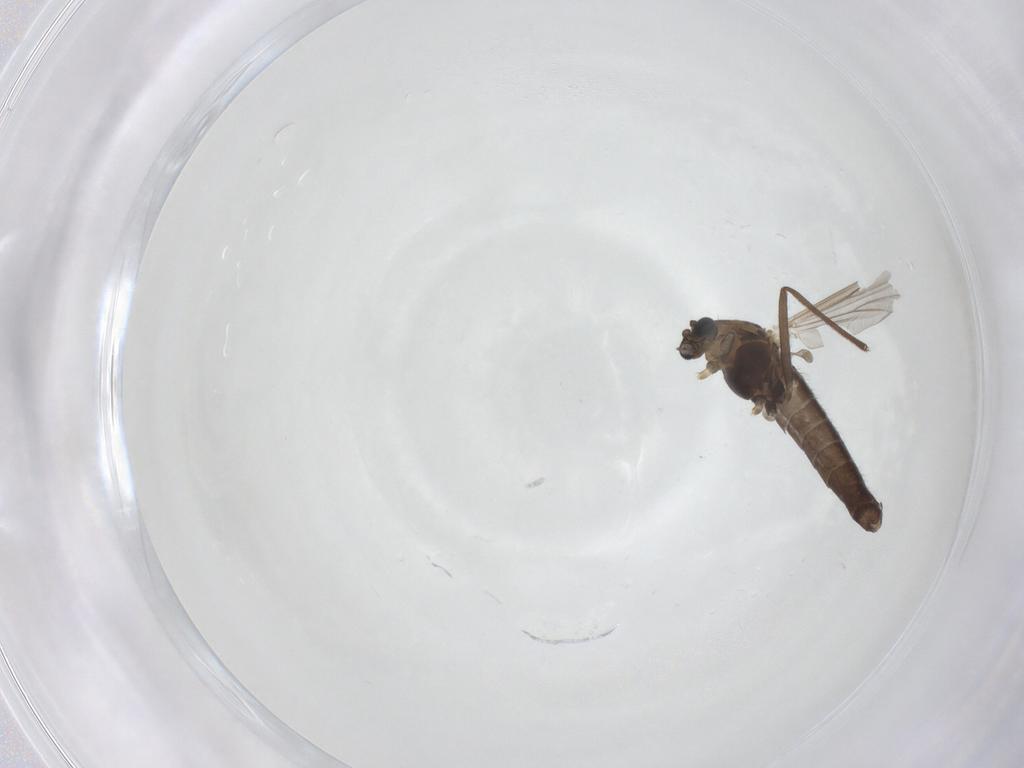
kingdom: Animalia
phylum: Arthropoda
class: Insecta
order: Diptera
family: Chironomidae
